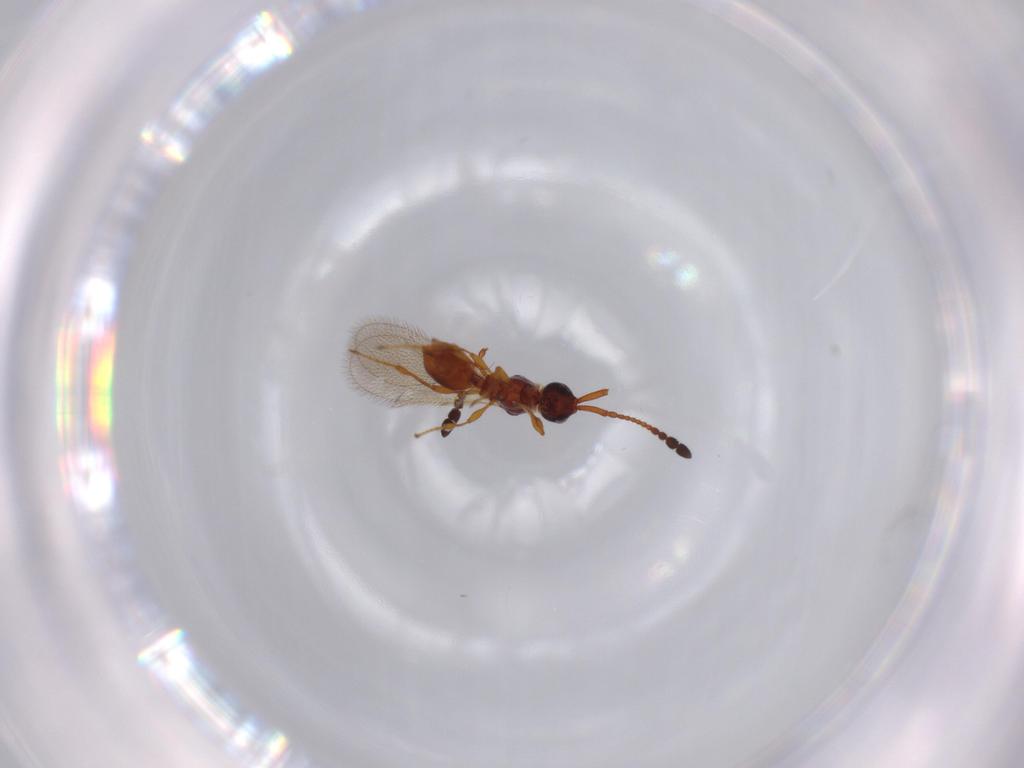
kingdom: Animalia
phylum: Arthropoda
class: Insecta
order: Hymenoptera
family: Diapriidae
